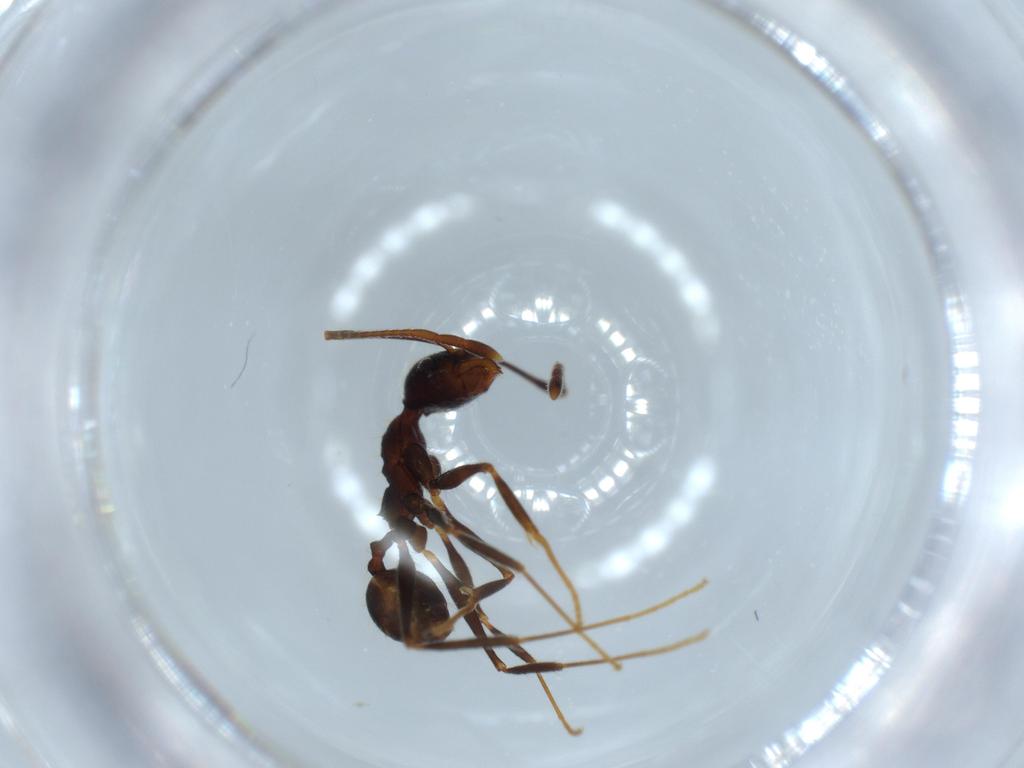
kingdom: Animalia
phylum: Arthropoda
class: Insecta
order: Hymenoptera
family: Formicidae
